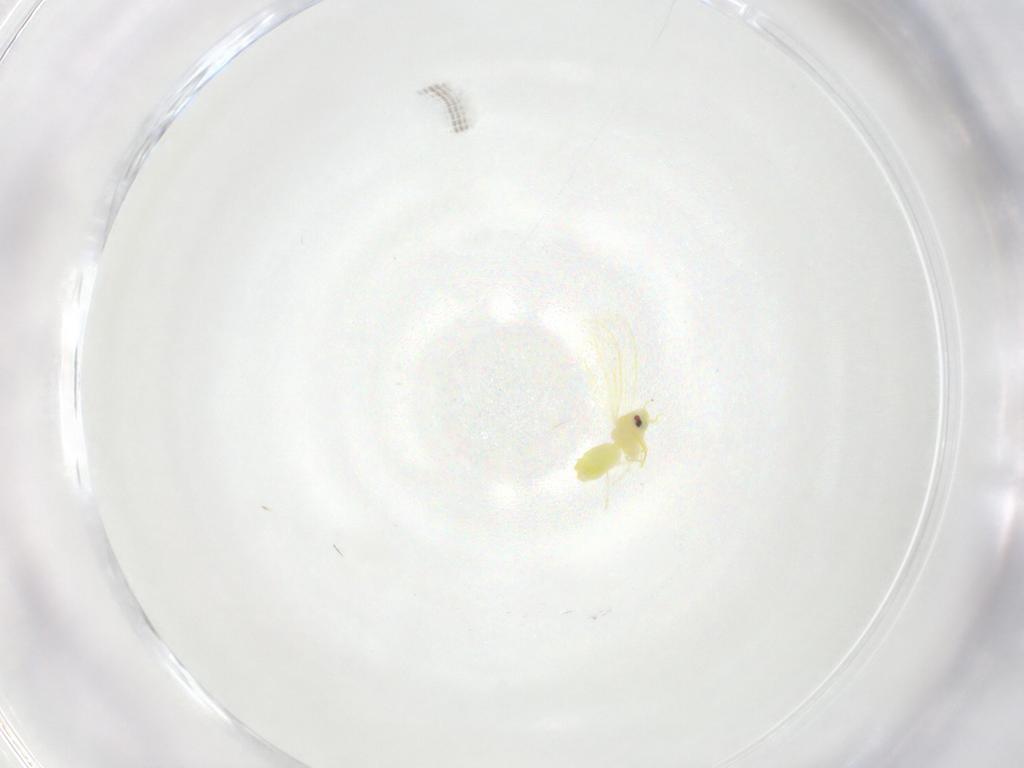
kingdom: Animalia
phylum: Arthropoda
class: Insecta
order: Hemiptera
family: Aleyrodidae
